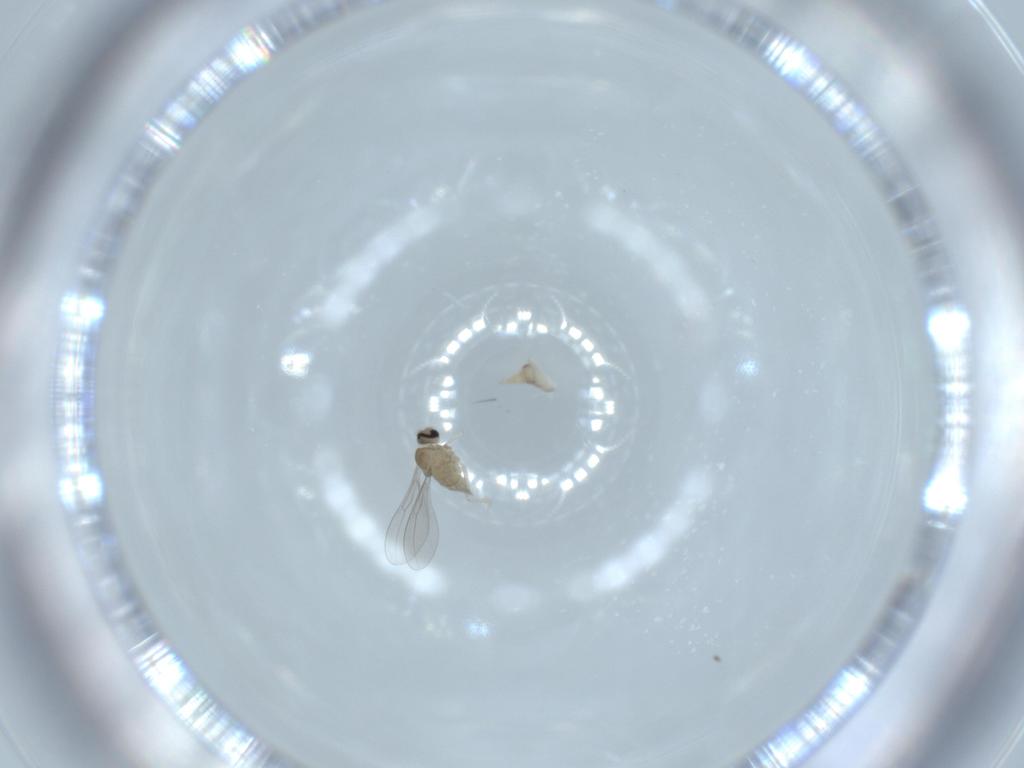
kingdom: Animalia
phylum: Arthropoda
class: Insecta
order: Diptera
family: Cecidomyiidae
